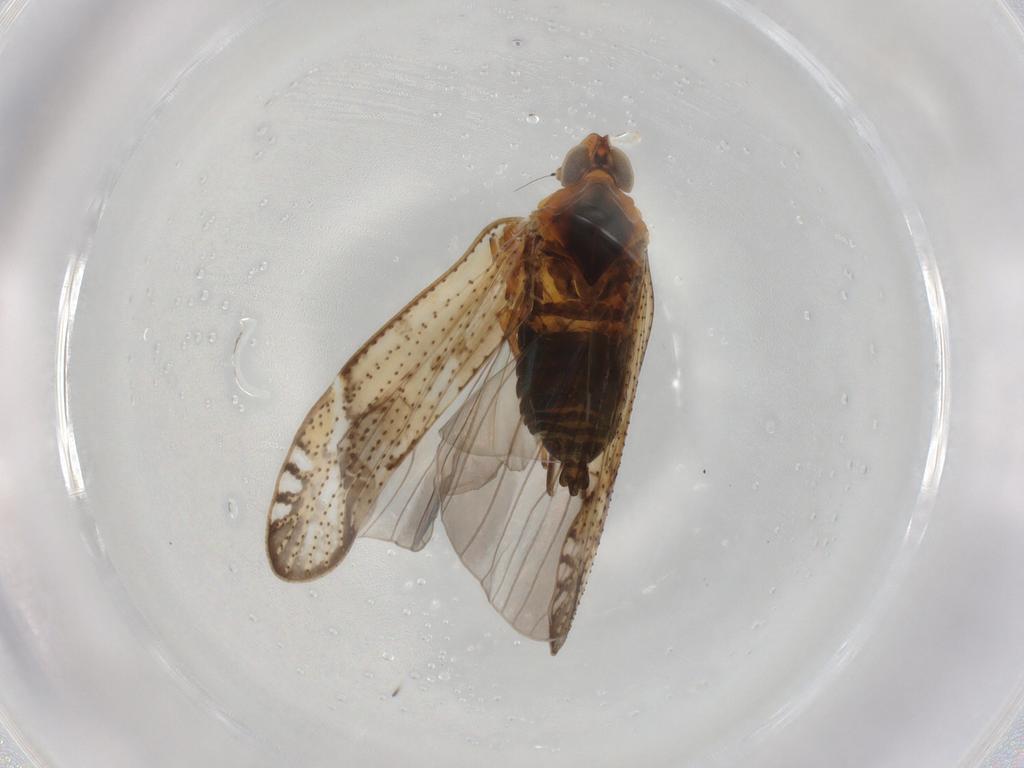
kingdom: Animalia
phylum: Arthropoda
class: Insecta
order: Hemiptera
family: Cixiidae
